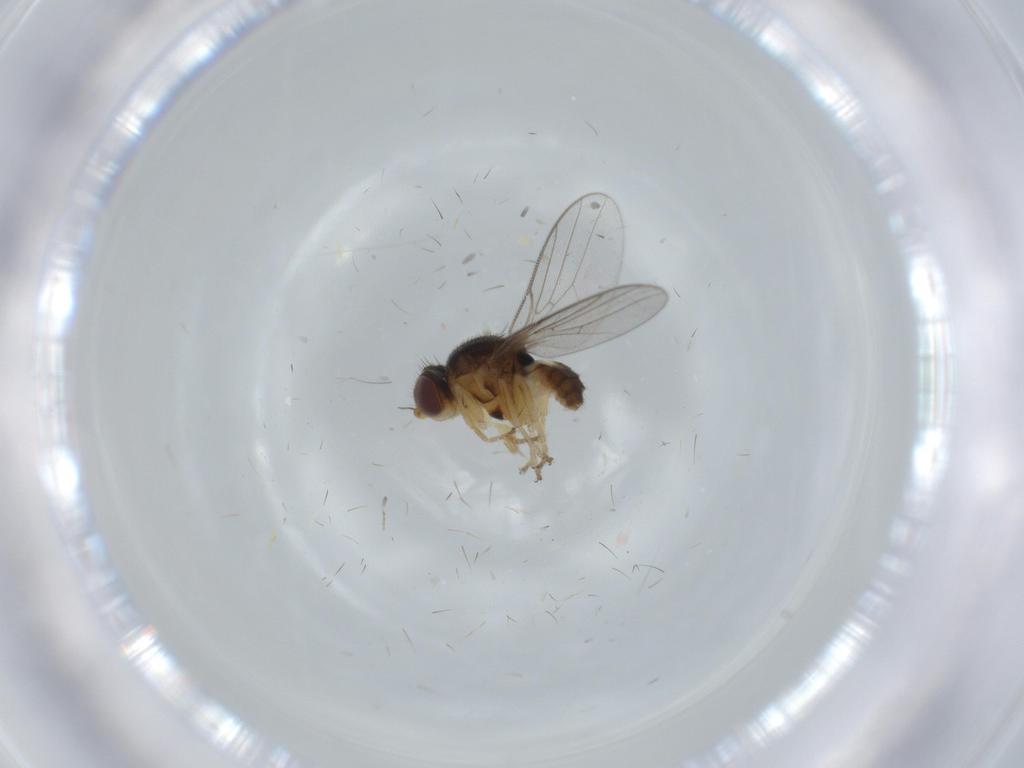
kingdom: Animalia
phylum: Arthropoda
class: Insecta
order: Diptera
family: Chloropidae
